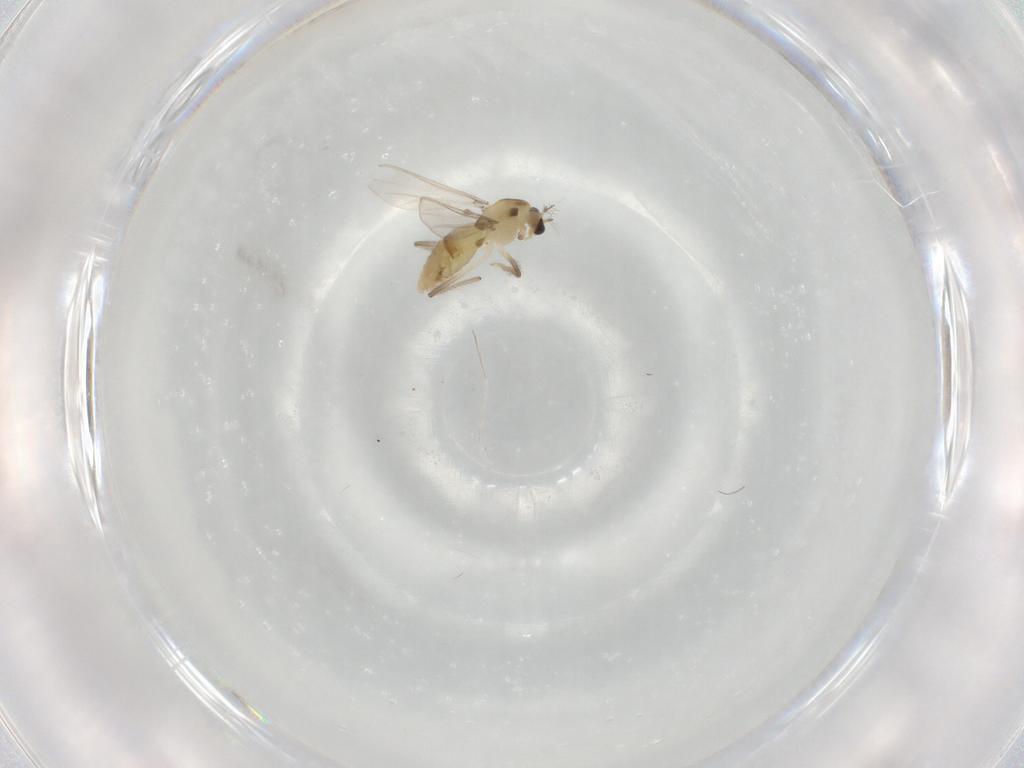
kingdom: Animalia
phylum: Arthropoda
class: Insecta
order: Diptera
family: Chironomidae
